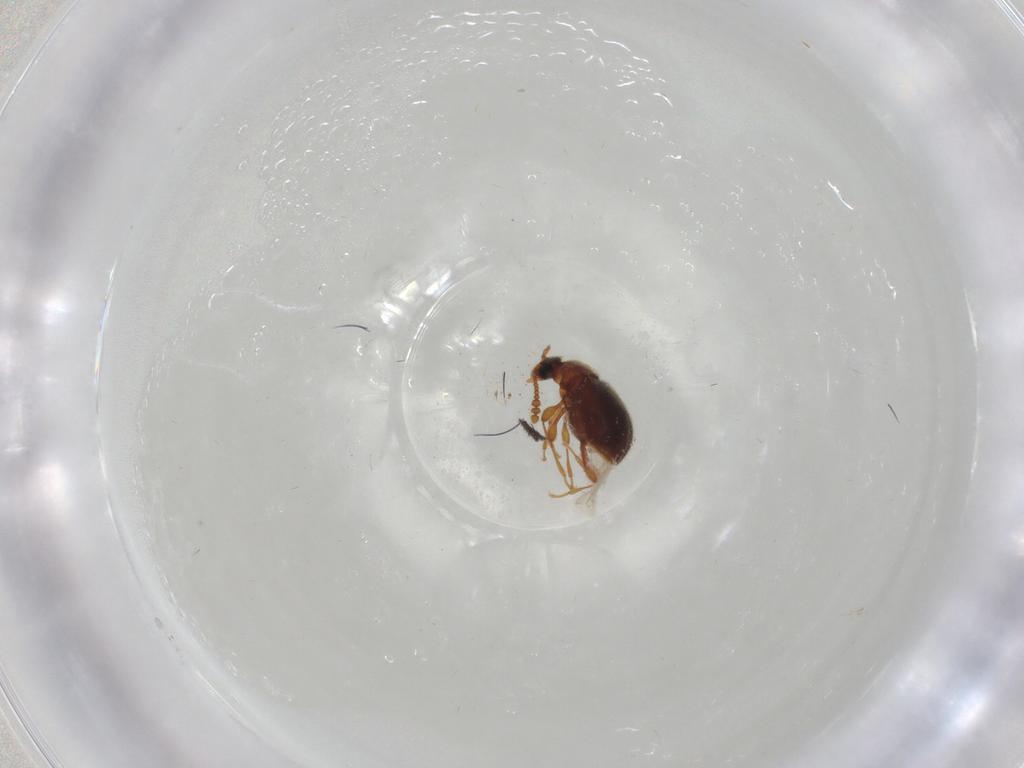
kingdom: Animalia
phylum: Arthropoda
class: Insecta
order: Coleoptera
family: Staphylinidae
